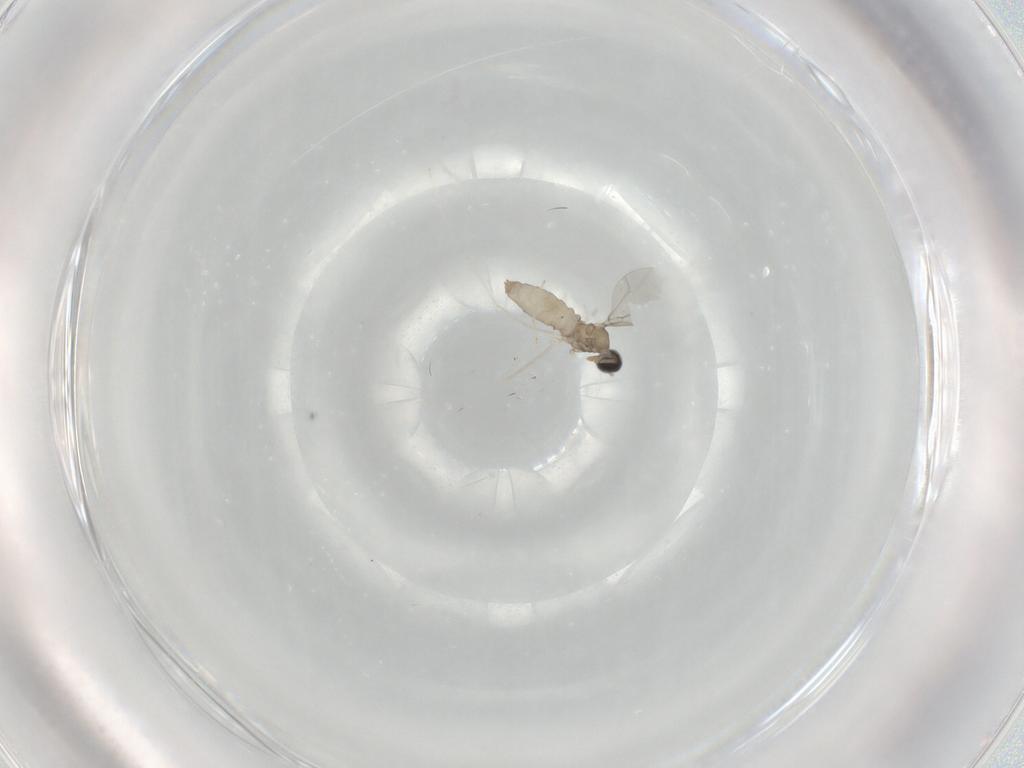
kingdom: Animalia
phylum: Arthropoda
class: Insecta
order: Diptera
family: Cecidomyiidae
